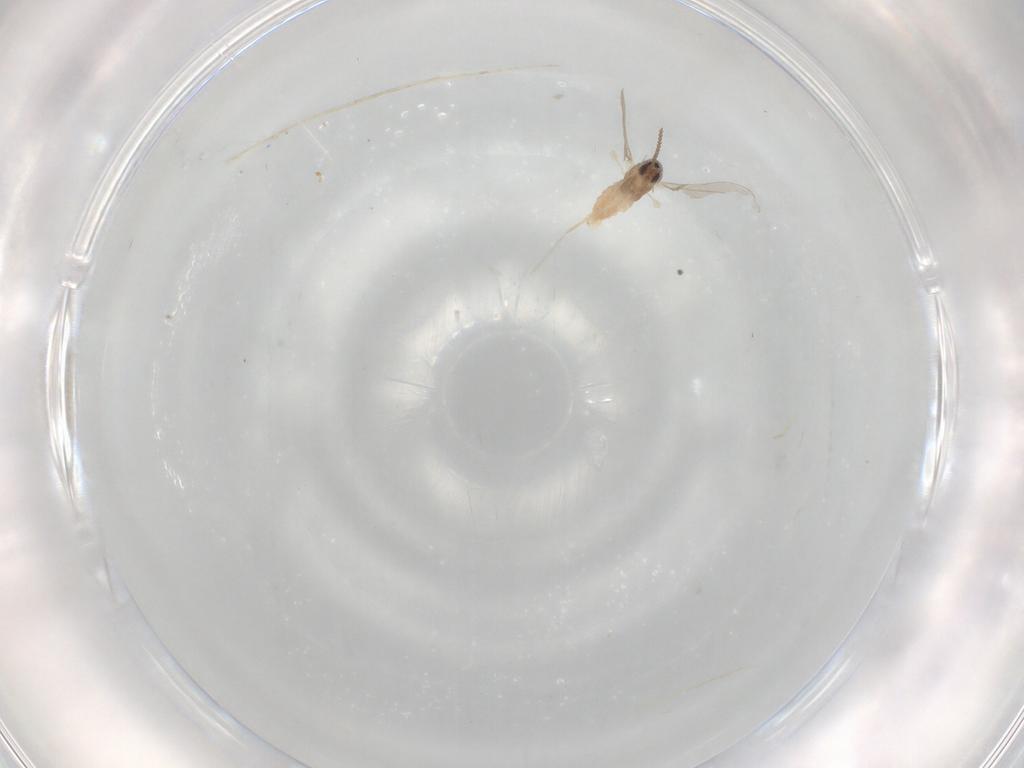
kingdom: Animalia
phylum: Arthropoda
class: Insecta
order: Diptera
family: Cecidomyiidae
